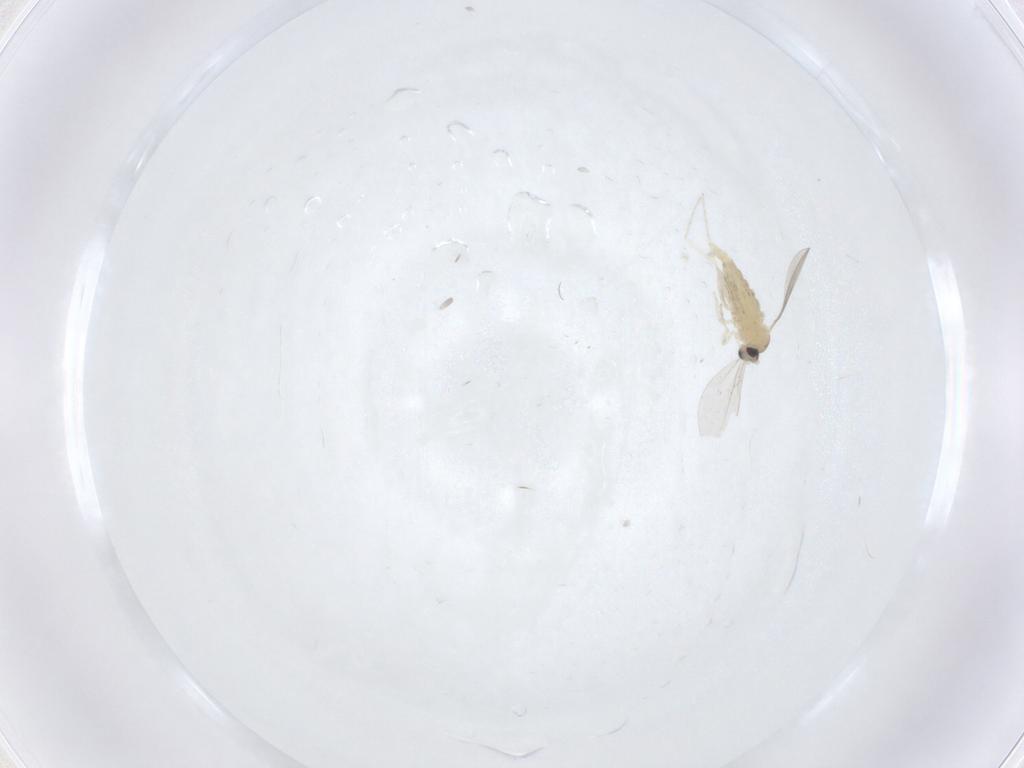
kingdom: Animalia
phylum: Arthropoda
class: Insecta
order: Diptera
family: Cecidomyiidae
